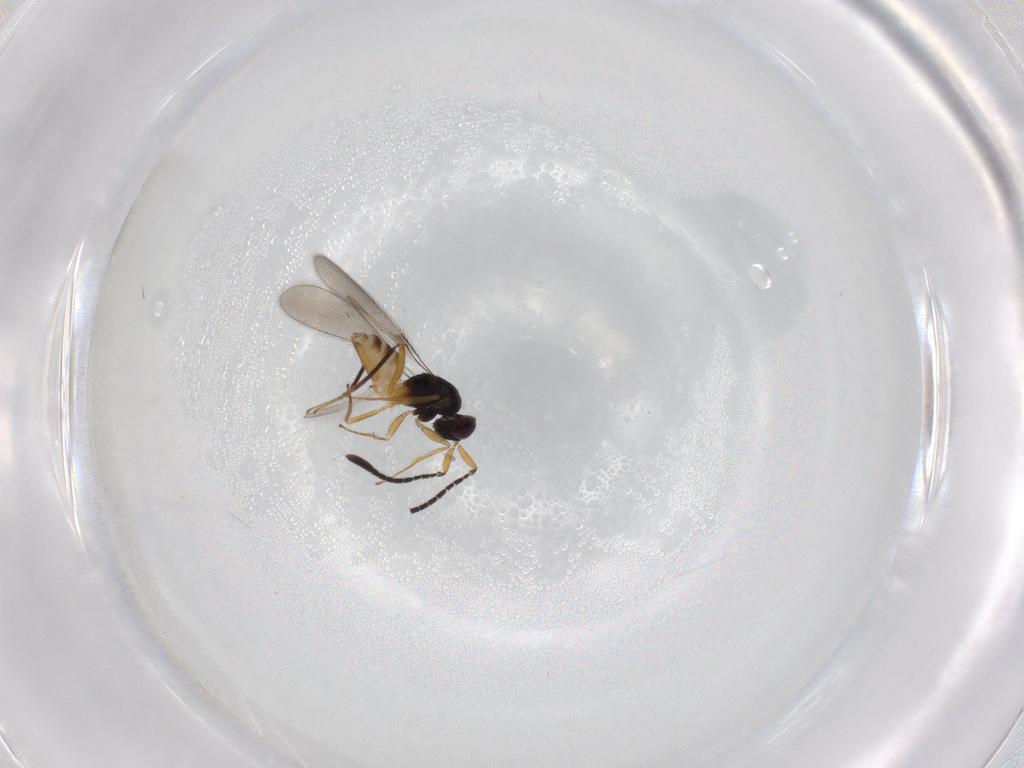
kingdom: Animalia
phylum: Arthropoda
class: Insecta
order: Hymenoptera
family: Mymaridae
